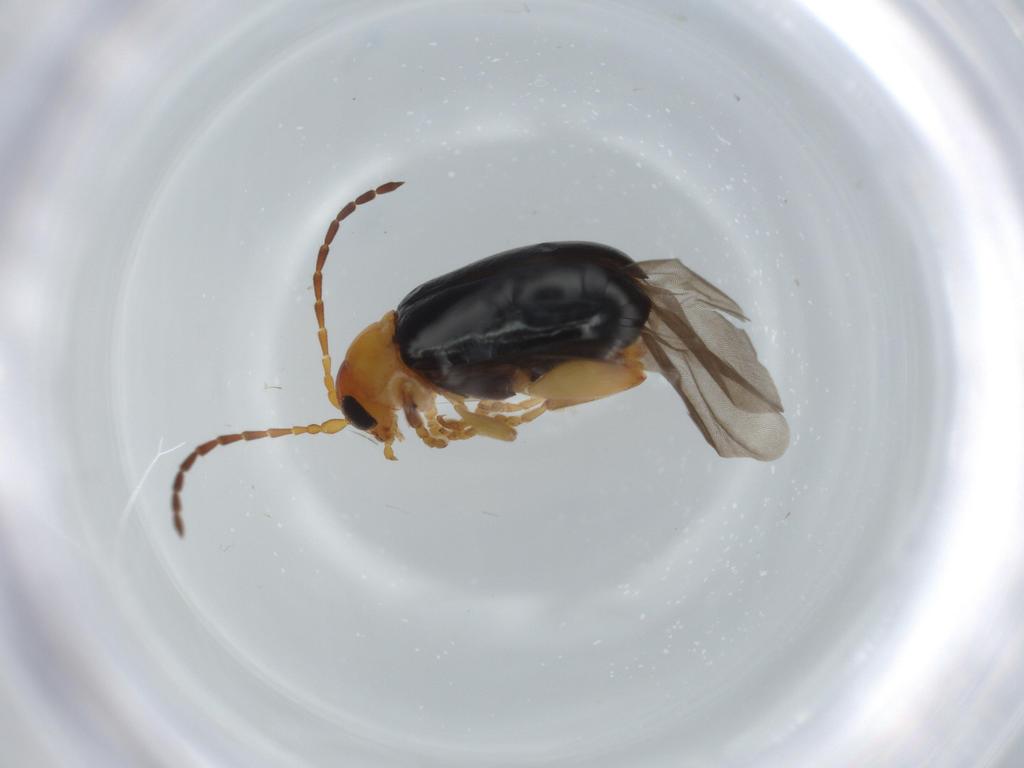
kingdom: Animalia
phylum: Arthropoda
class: Insecta
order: Coleoptera
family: Chrysomelidae
